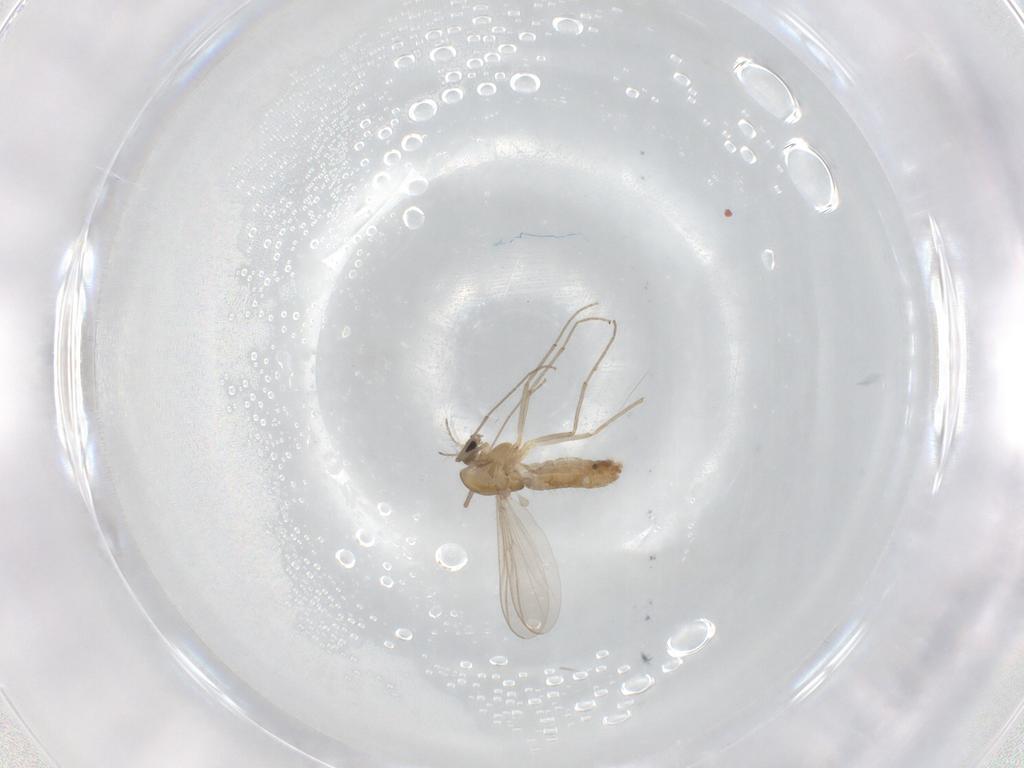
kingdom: Animalia
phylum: Arthropoda
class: Insecta
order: Diptera
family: Chironomidae
